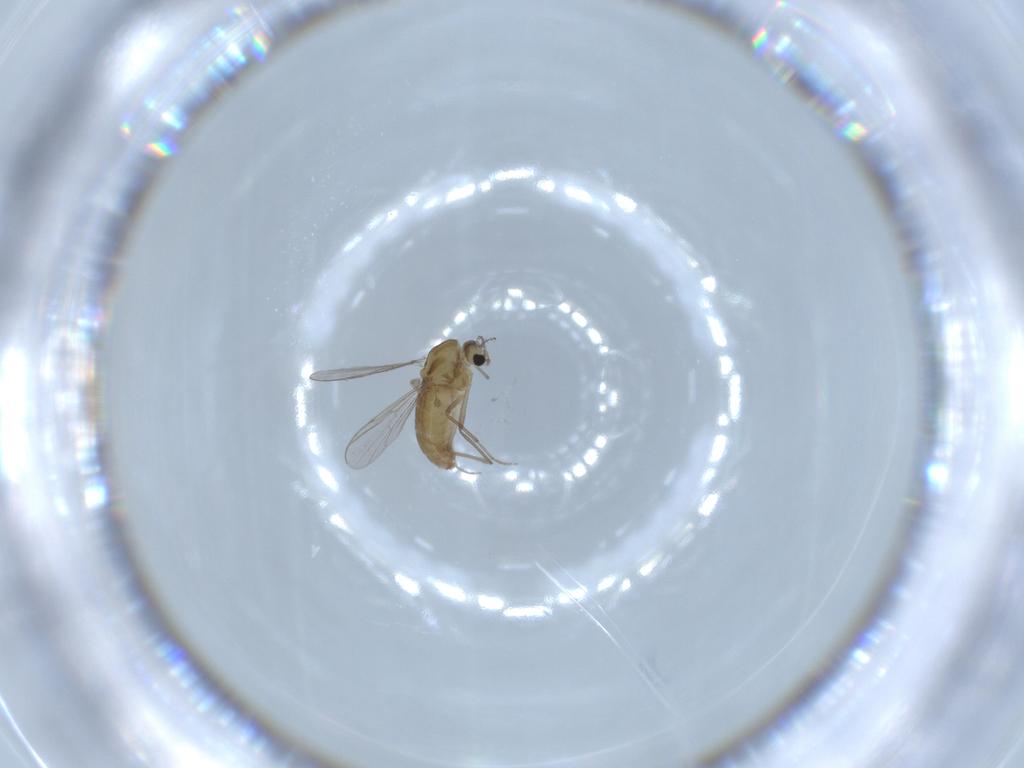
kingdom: Animalia
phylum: Arthropoda
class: Insecta
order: Diptera
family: Chironomidae
